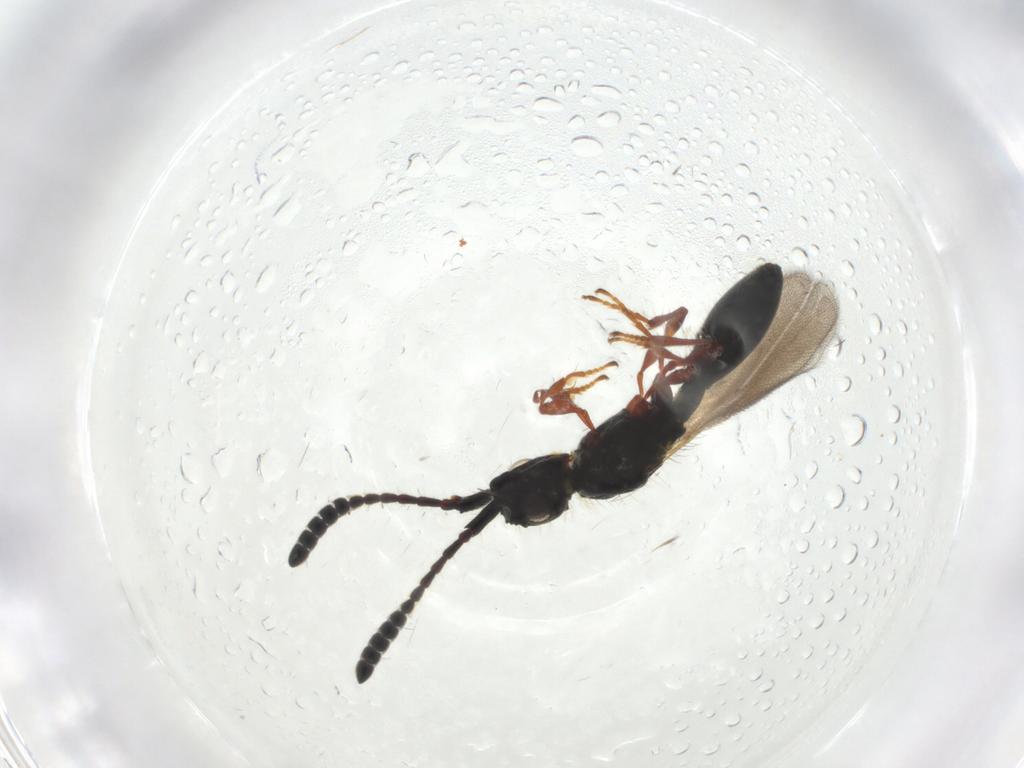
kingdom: Animalia
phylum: Arthropoda
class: Insecta
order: Hymenoptera
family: Diapriidae
